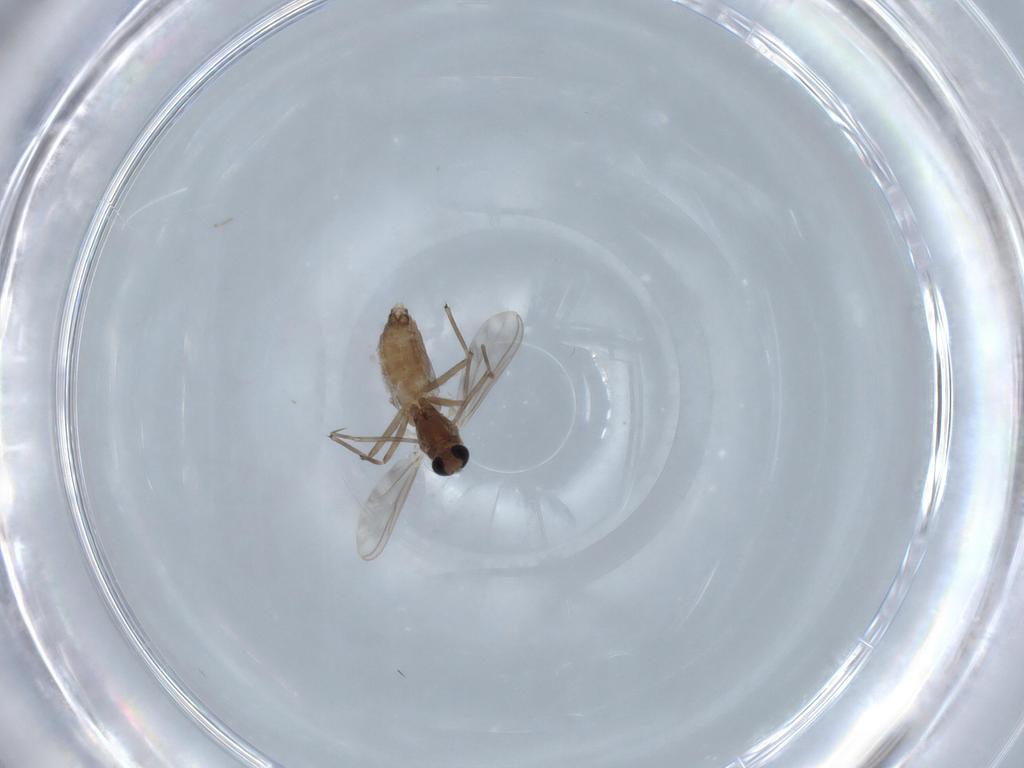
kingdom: Animalia
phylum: Arthropoda
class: Insecta
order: Diptera
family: Chironomidae
